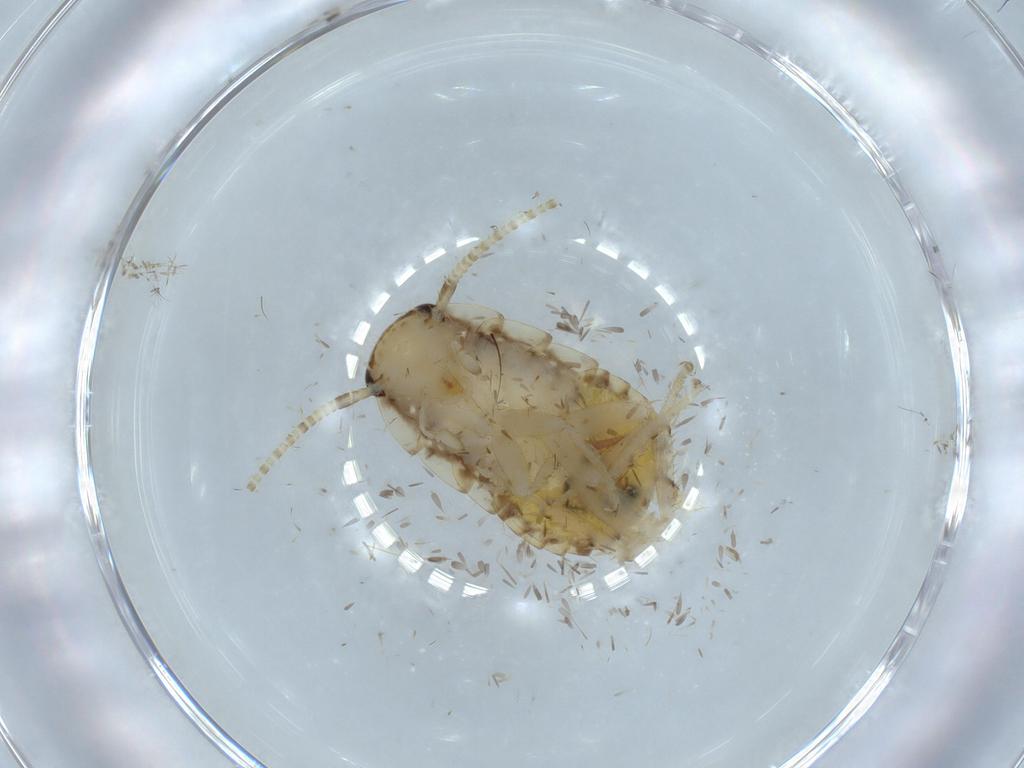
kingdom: Animalia
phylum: Arthropoda
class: Insecta
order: Blattodea
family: Ectobiidae
